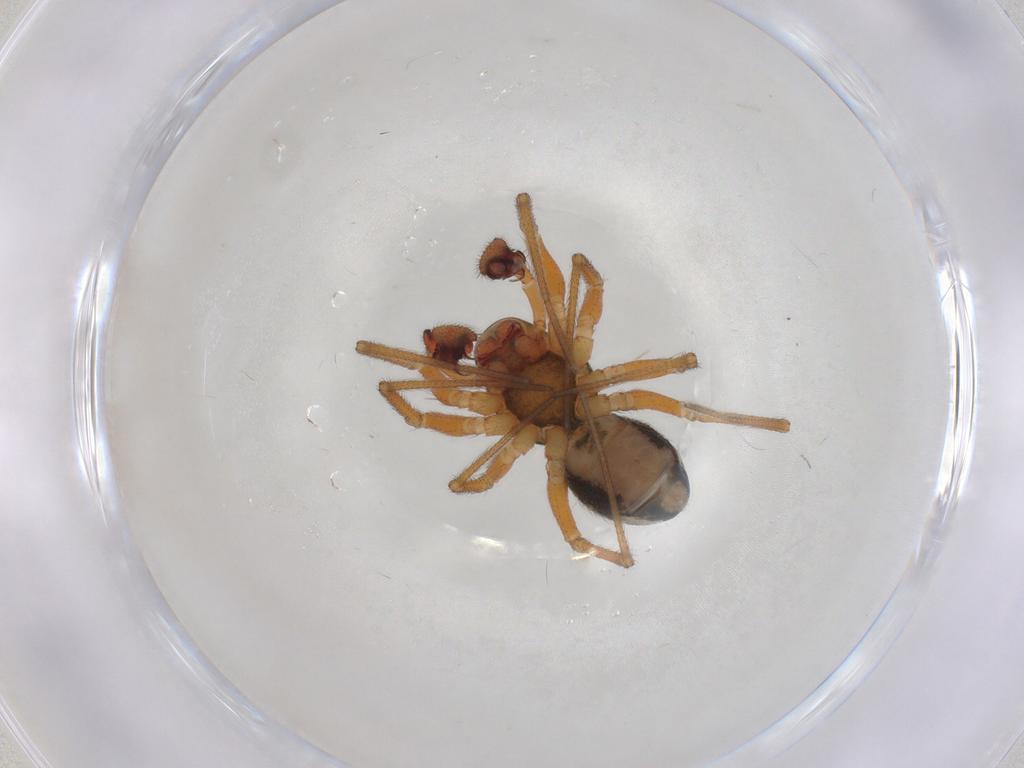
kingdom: Animalia
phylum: Arthropoda
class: Arachnida
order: Araneae
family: Linyphiidae
